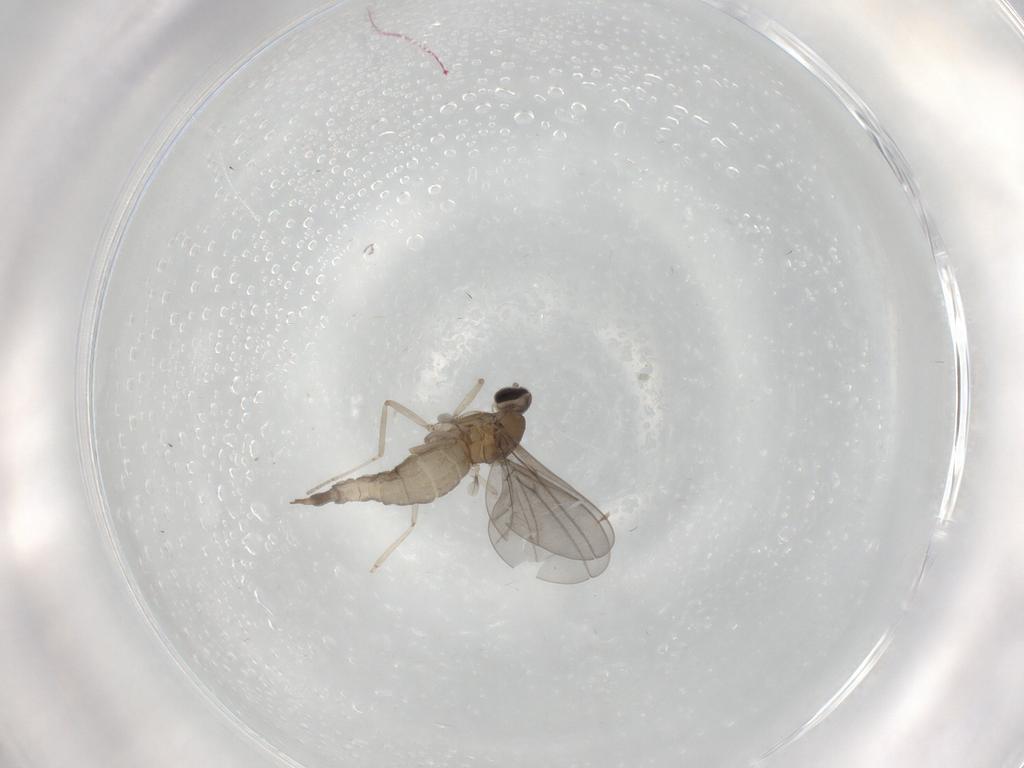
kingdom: Animalia
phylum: Arthropoda
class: Insecta
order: Diptera
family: Cecidomyiidae
